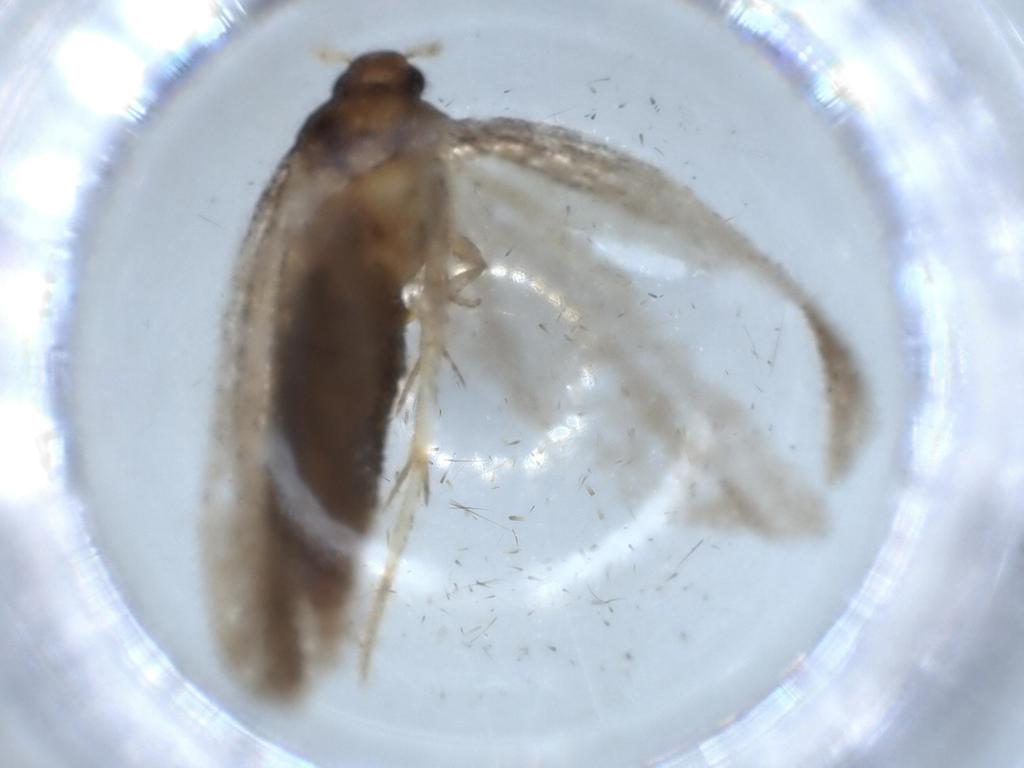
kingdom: Animalia
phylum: Arthropoda
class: Insecta
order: Lepidoptera
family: Lecithoceridae
